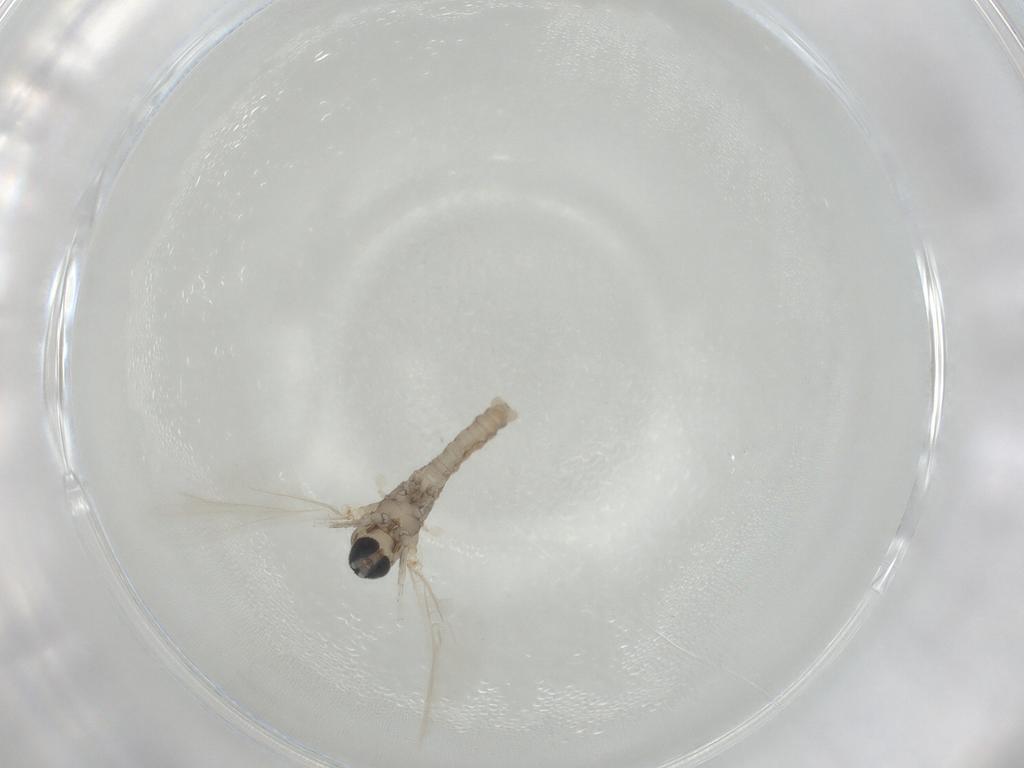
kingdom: Animalia
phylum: Arthropoda
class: Insecta
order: Diptera
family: Cecidomyiidae
